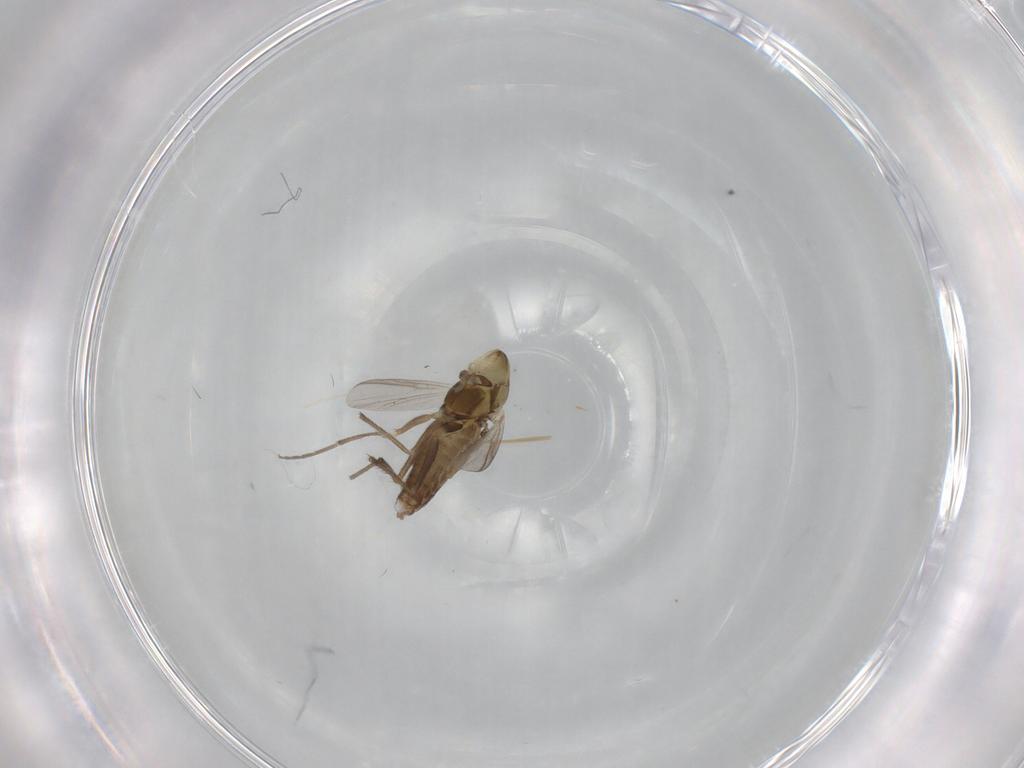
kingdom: Animalia
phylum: Arthropoda
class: Insecta
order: Diptera
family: Chironomidae
